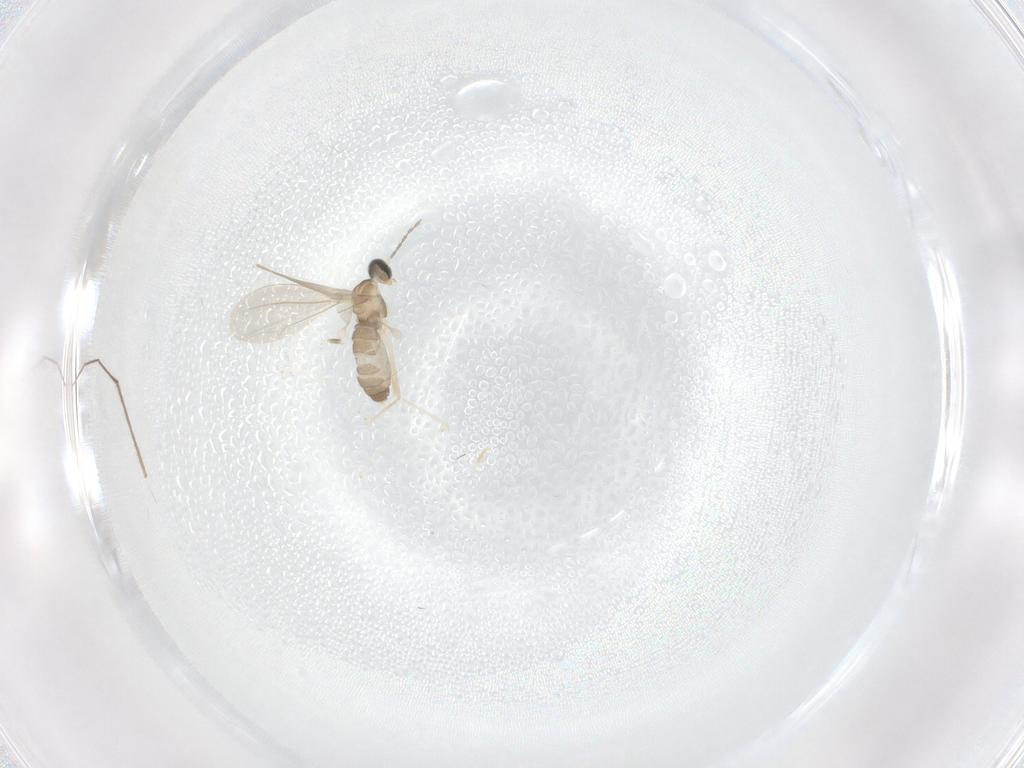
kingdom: Animalia
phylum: Arthropoda
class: Insecta
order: Diptera
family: Cecidomyiidae
